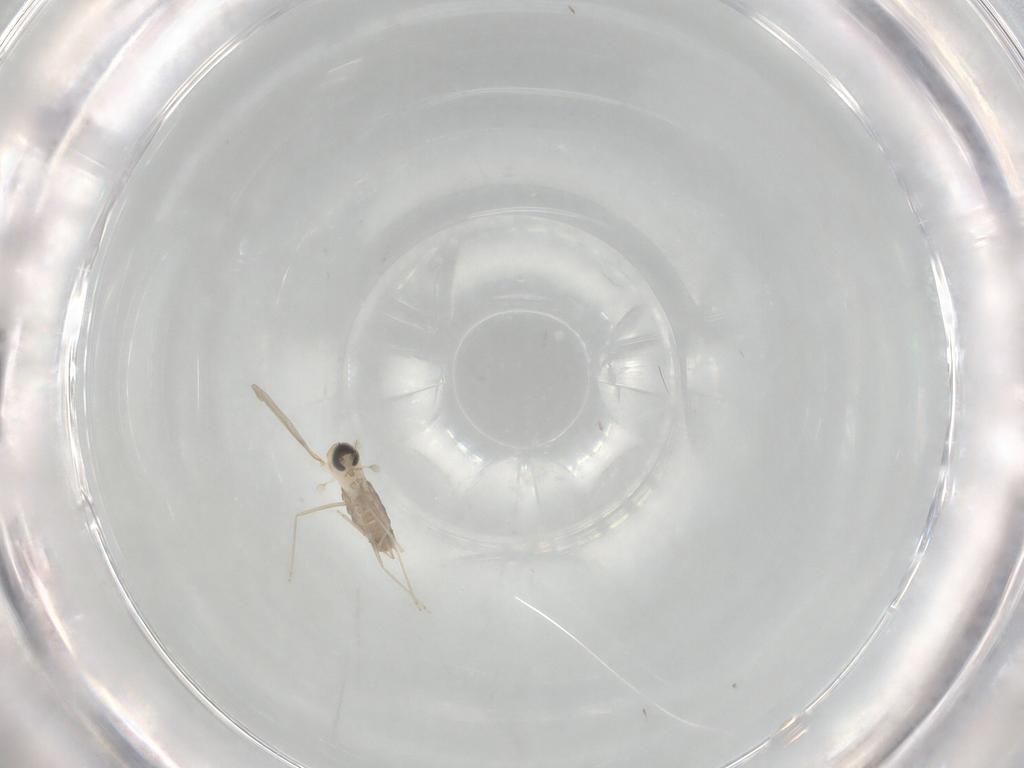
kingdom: Animalia
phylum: Arthropoda
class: Insecta
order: Diptera
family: Cecidomyiidae
